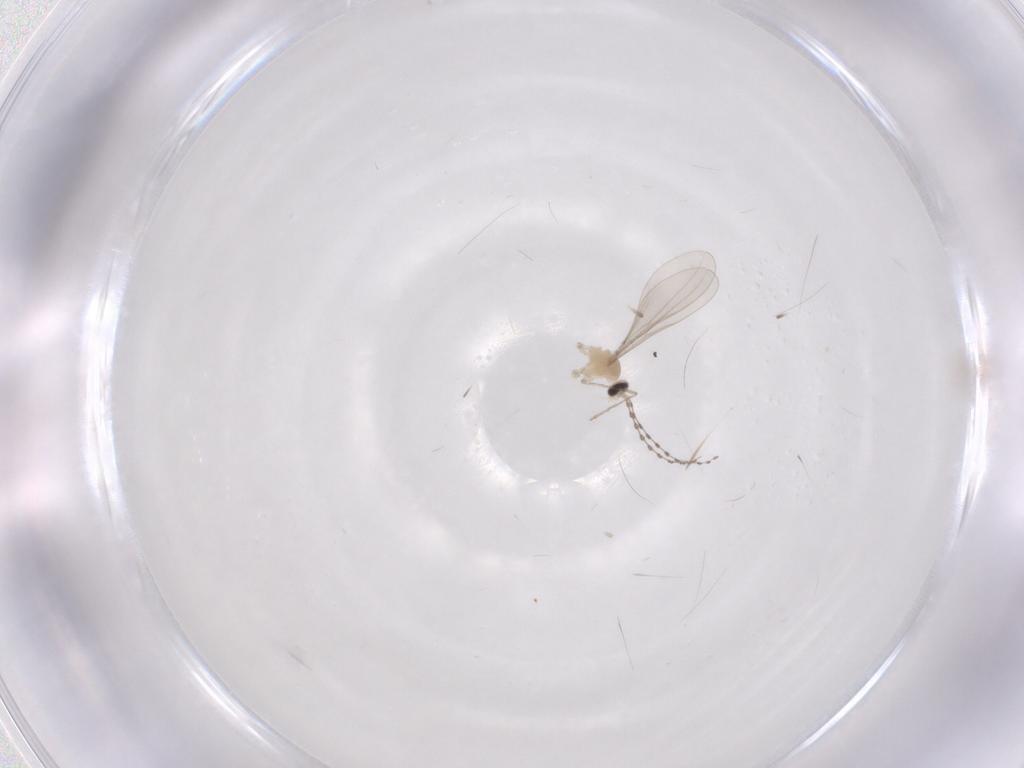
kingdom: Animalia
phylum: Arthropoda
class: Insecta
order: Diptera
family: Cecidomyiidae
